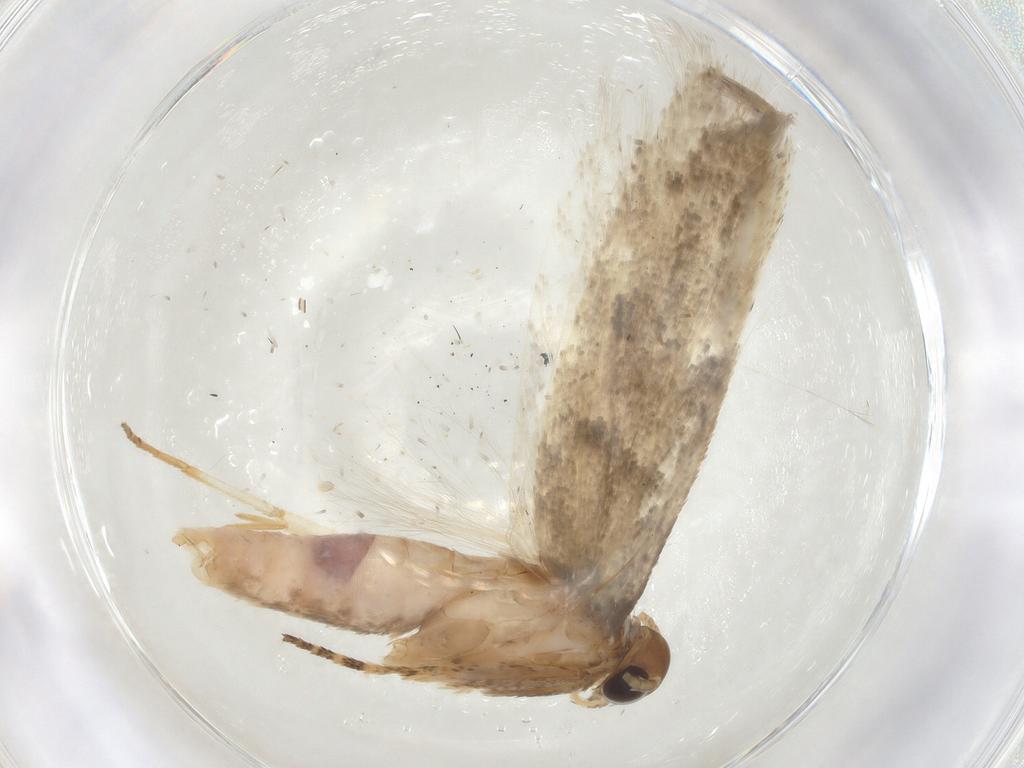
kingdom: Animalia
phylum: Arthropoda
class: Insecta
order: Lepidoptera
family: Gelechiidae
